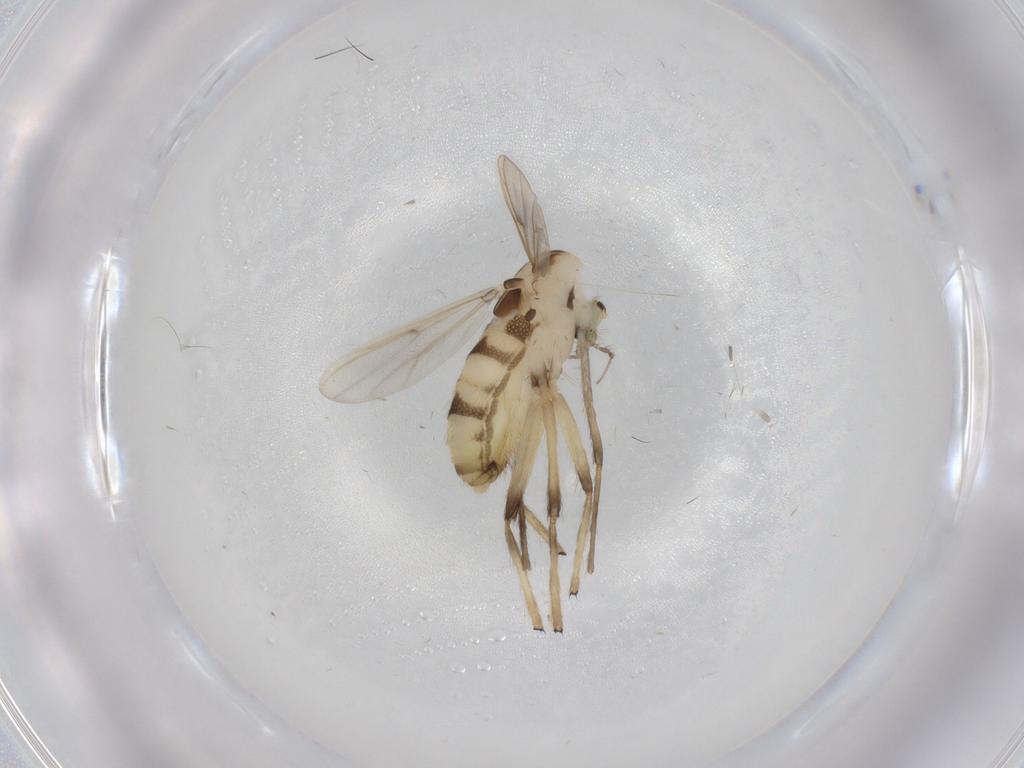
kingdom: Animalia
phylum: Arthropoda
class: Insecta
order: Diptera
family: Chironomidae
